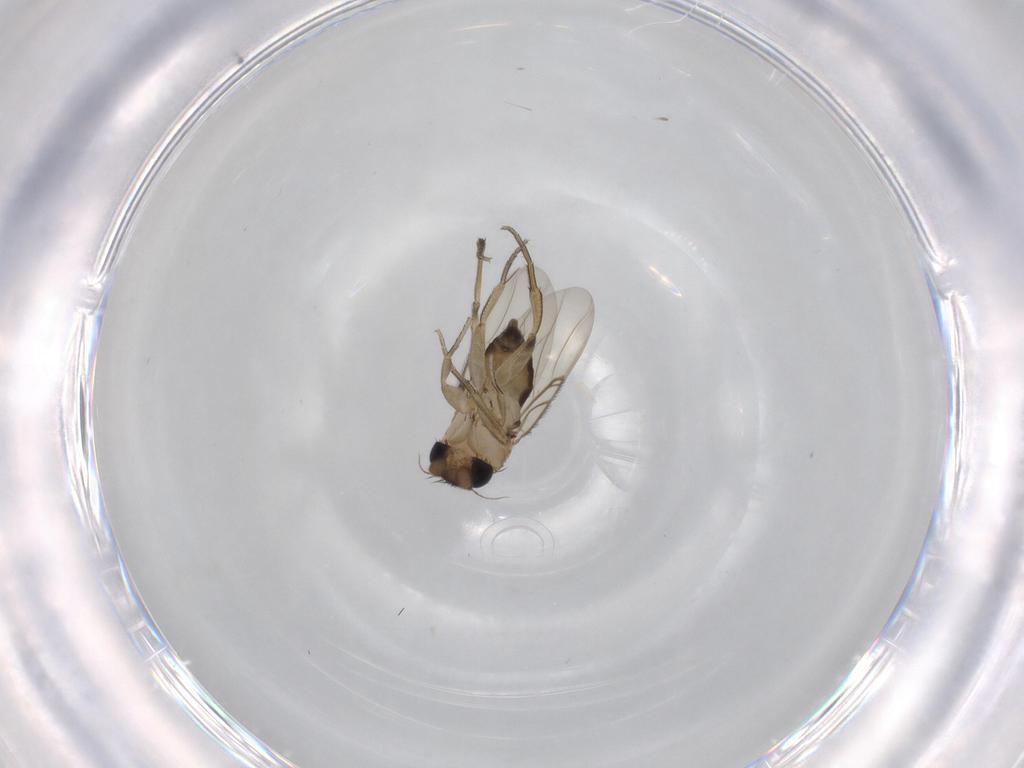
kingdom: Animalia
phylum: Arthropoda
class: Insecta
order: Diptera
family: Phoridae
